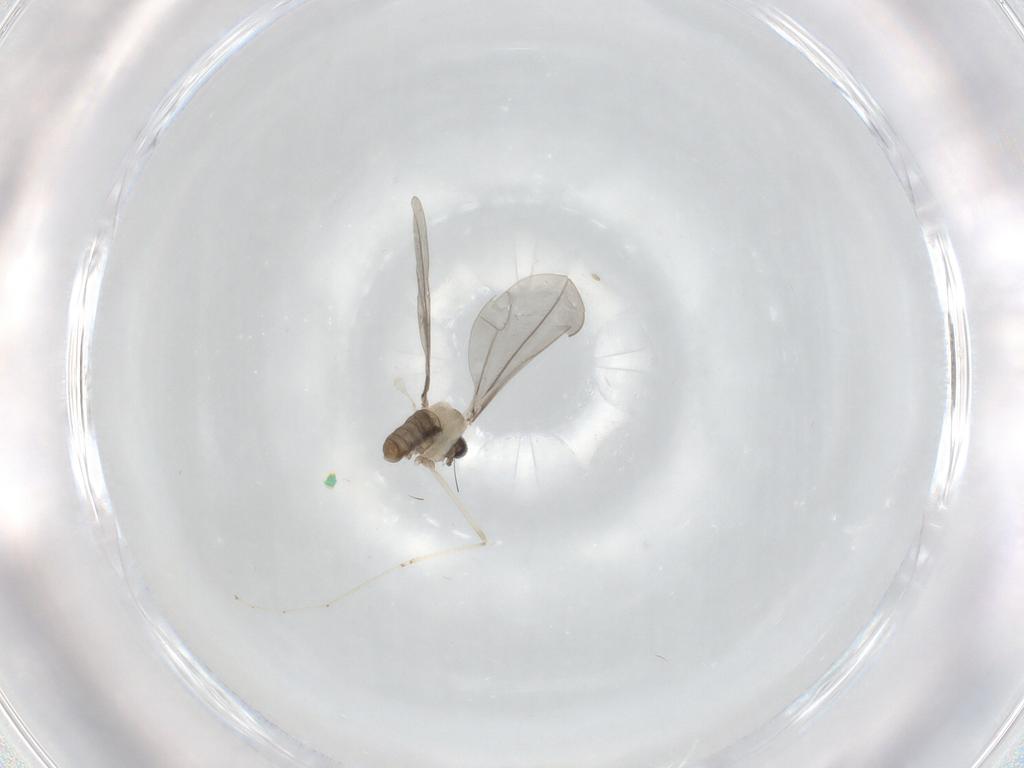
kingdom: Animalia
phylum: Arthropoda
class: Insecta
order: Diptera
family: Cecidomyiidae
